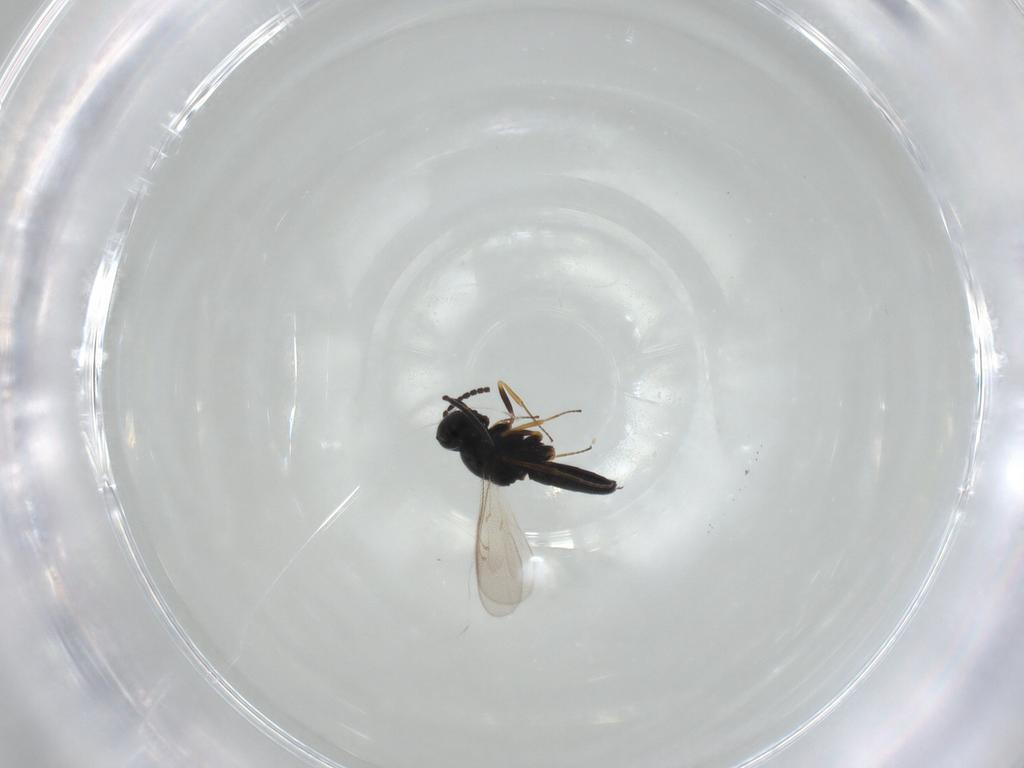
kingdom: Animalia
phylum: Arthropoda
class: Insecta
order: Hymenoptera
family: Scelionidae
